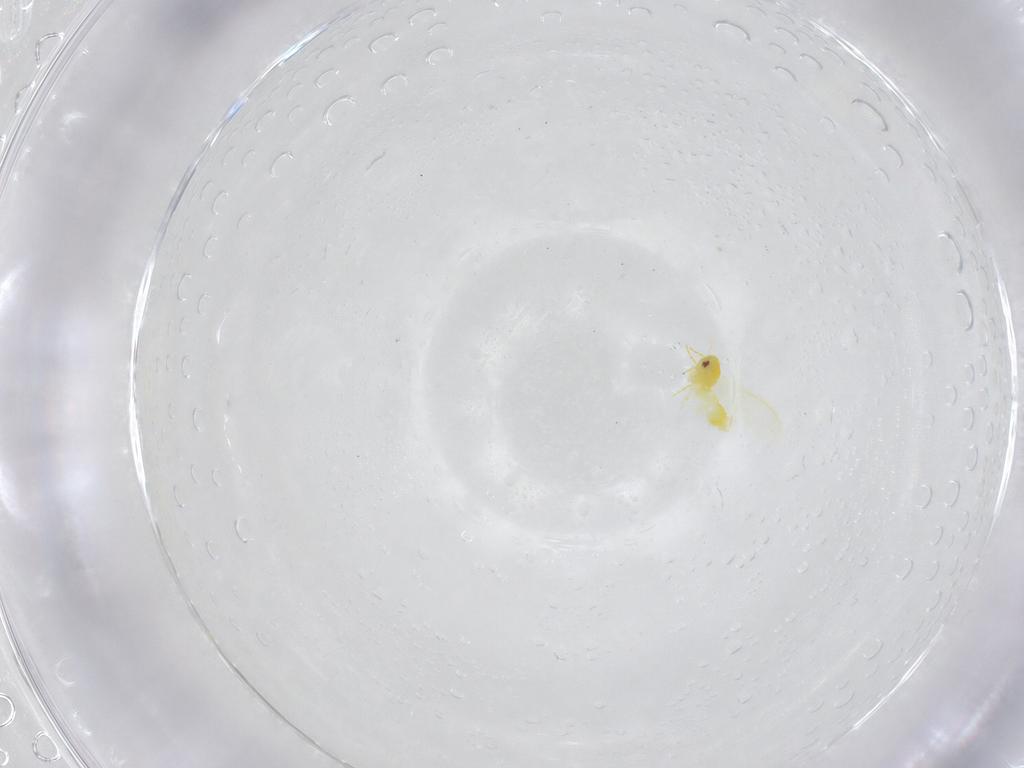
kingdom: Animalia
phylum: Arthropoda
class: Insecta
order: Hemiptera
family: Aleyrodidae
